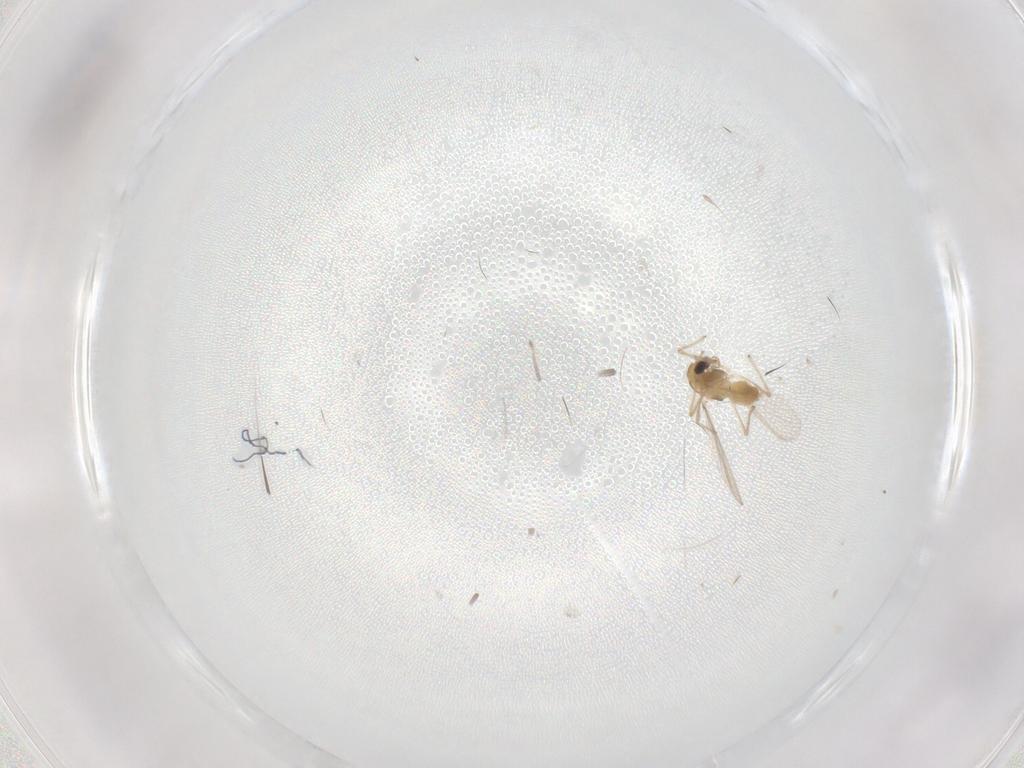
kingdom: Animalia
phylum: Arthropoda
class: Insecta
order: Diptera
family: Chironomidae
